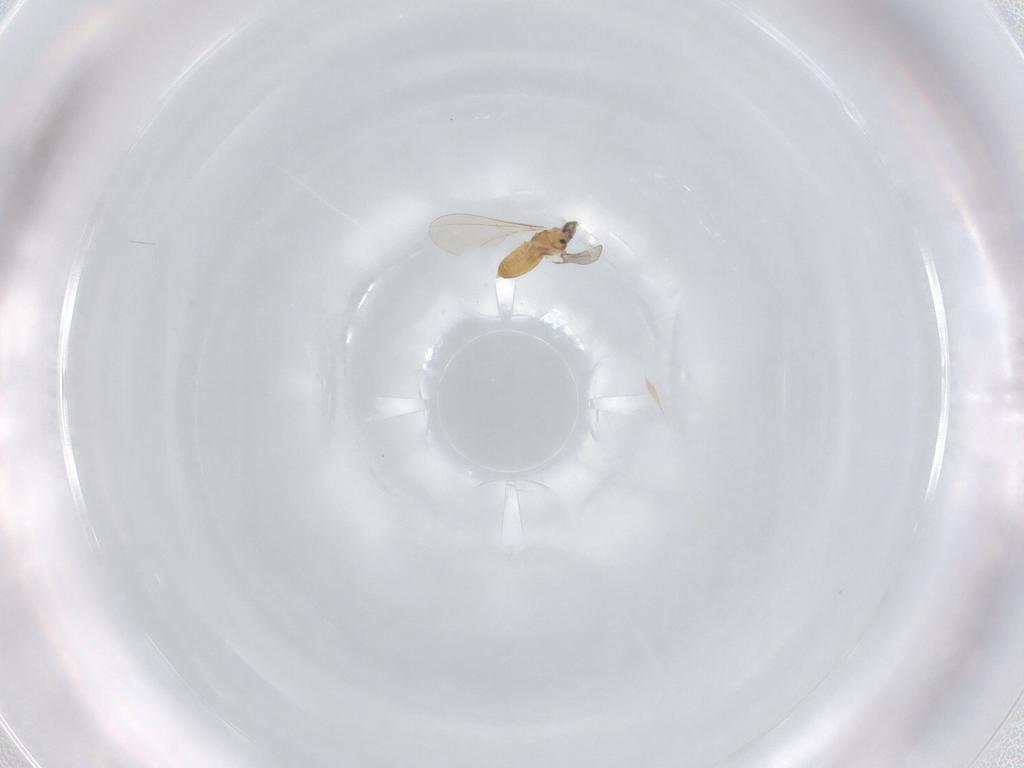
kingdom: Animalia
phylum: Arthropoda
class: Insecta
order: Diptera
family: Cecidomyiidae
